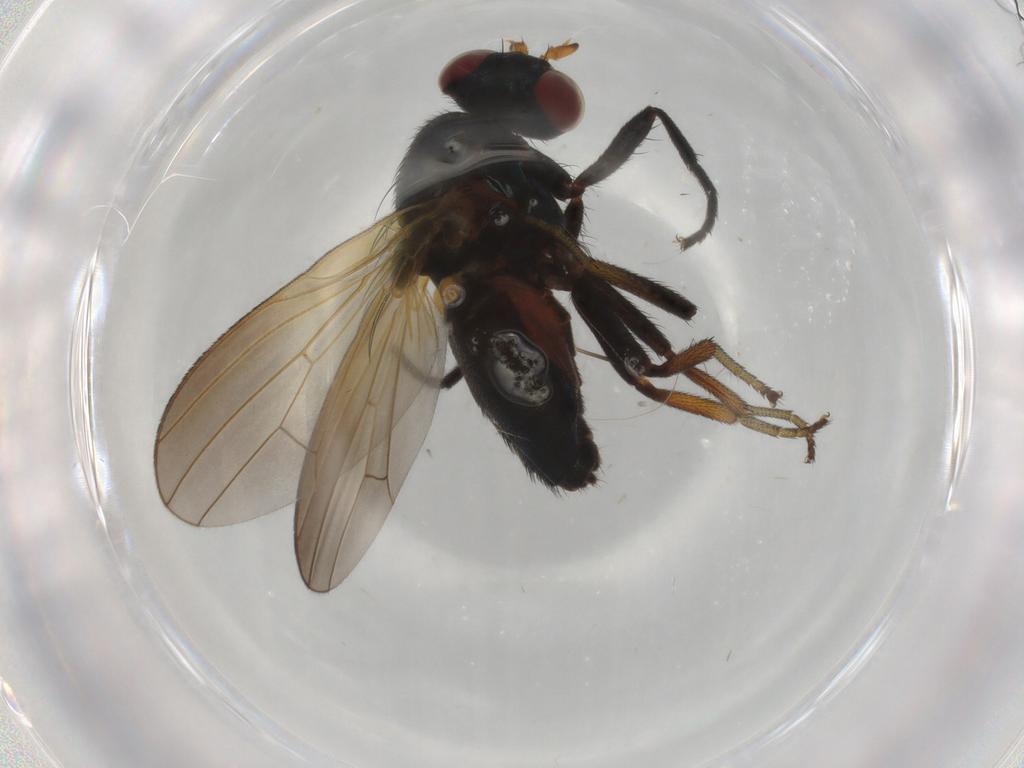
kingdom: Animalia
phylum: Arthropoda
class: Insecta
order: Diptera
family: Lauxaniidae
